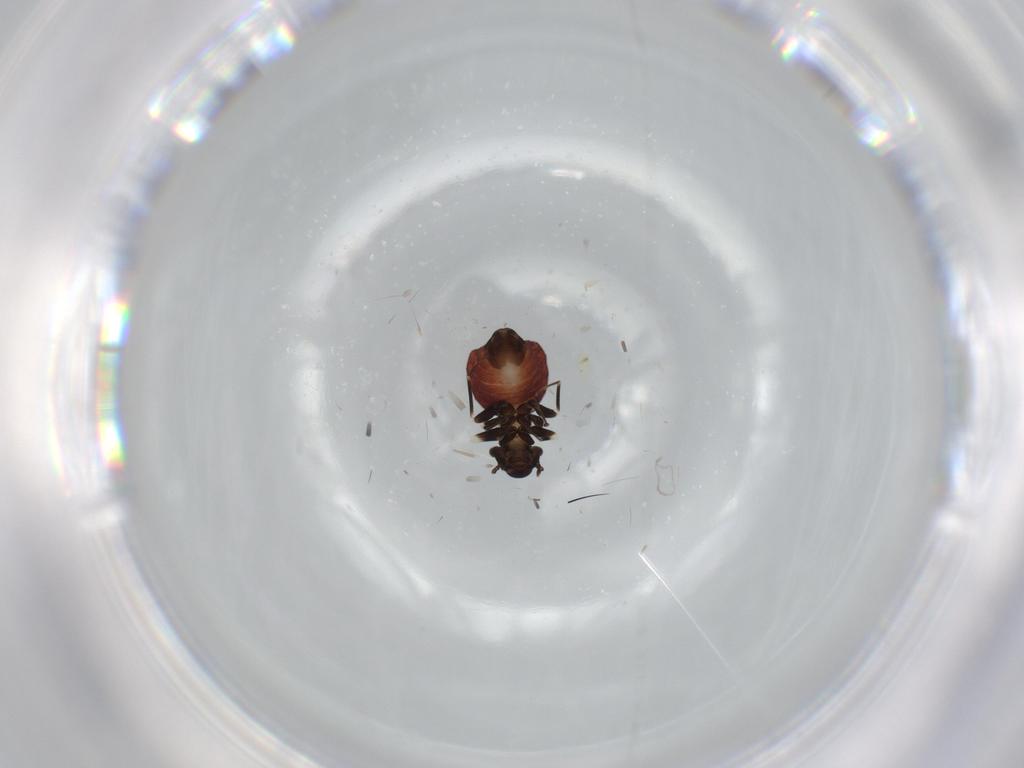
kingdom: Animalia
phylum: Arthropoda
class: Insecta
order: Psocodea
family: Lepidopsocidae
